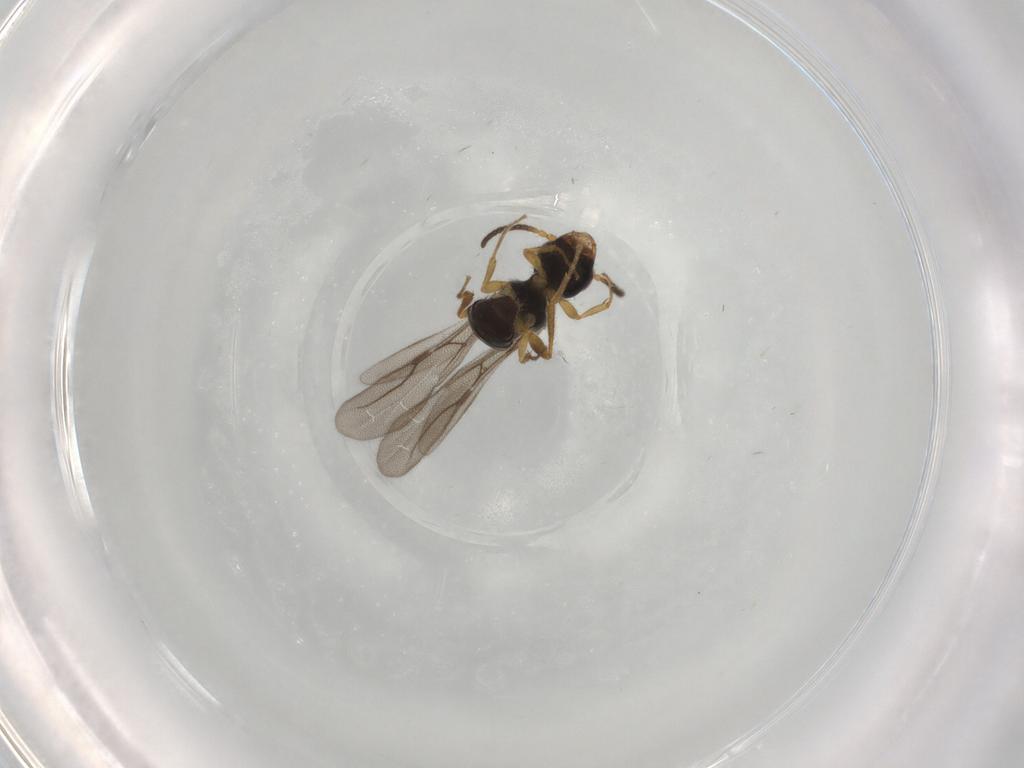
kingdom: Animalia
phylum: Arthropoda
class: Insecta
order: Hymenoptera
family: Bethylidae
